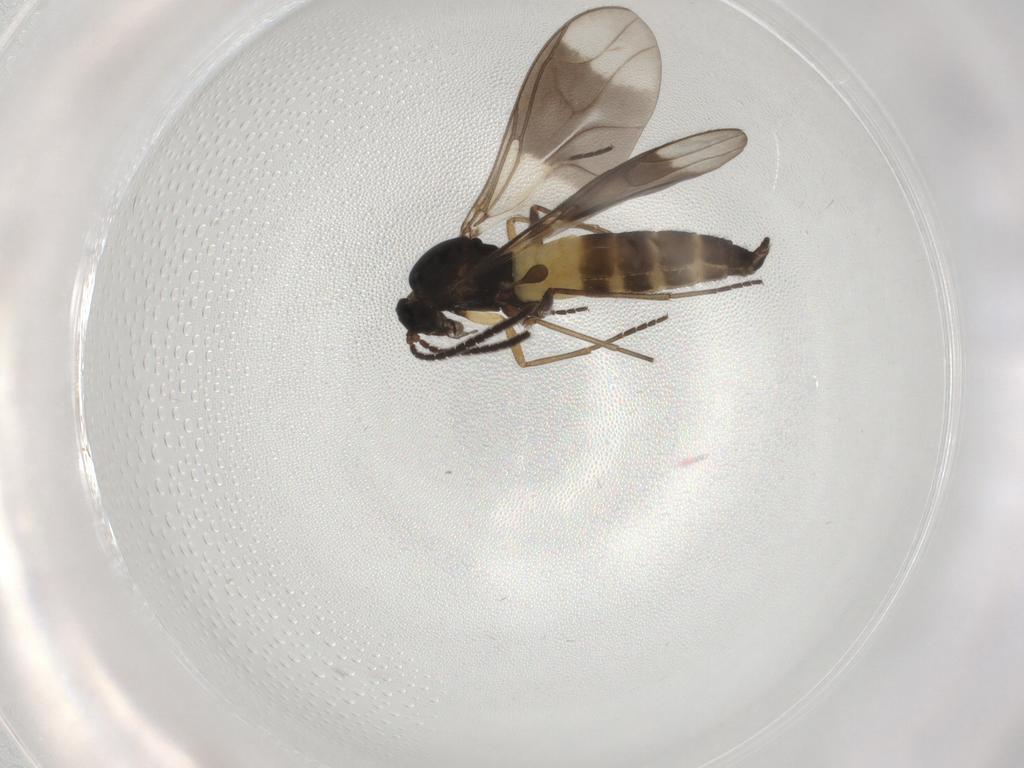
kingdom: Animalia
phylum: Arthropoda
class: Insecta
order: Diptera
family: Sciaridae
